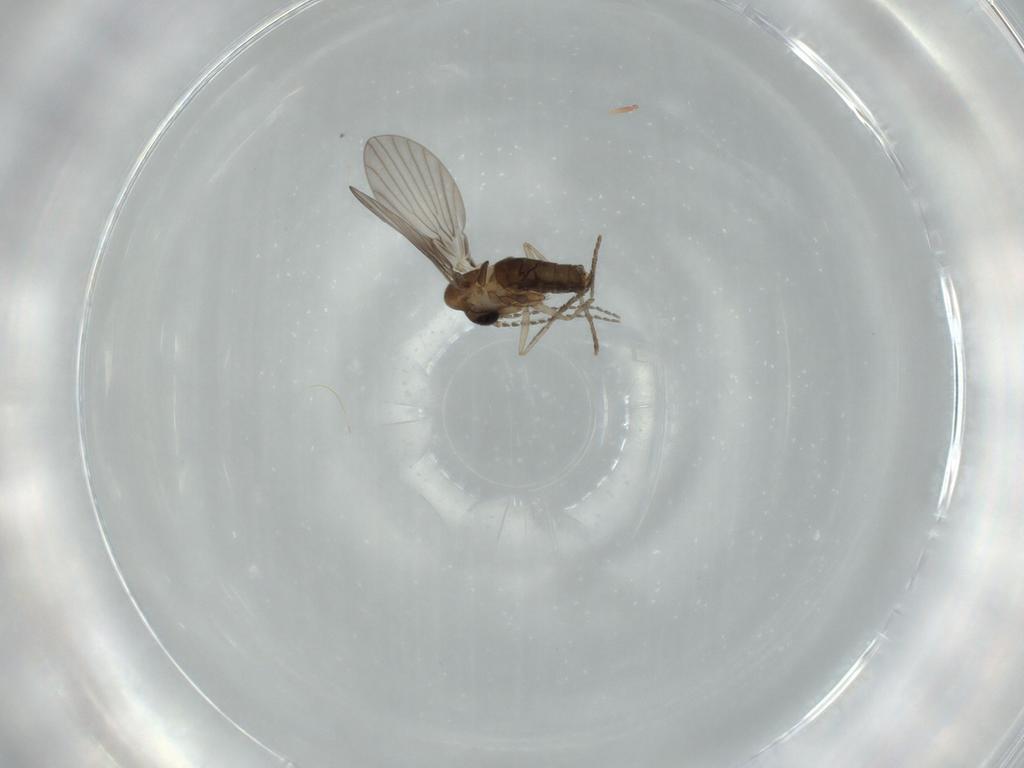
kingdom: Animalia
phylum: Arthropoda
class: Insecta
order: Diptera
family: Psychodidae
